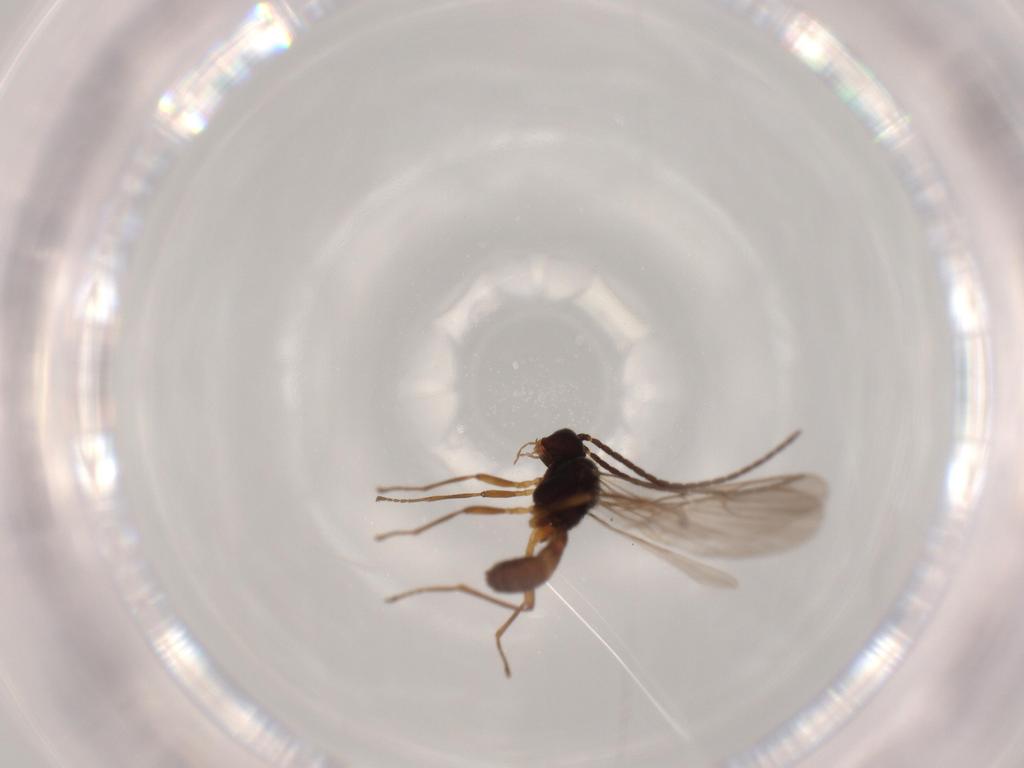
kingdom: Animalia
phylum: Arthropoda
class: Insecta
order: Hymenoptera
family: Braconidae
